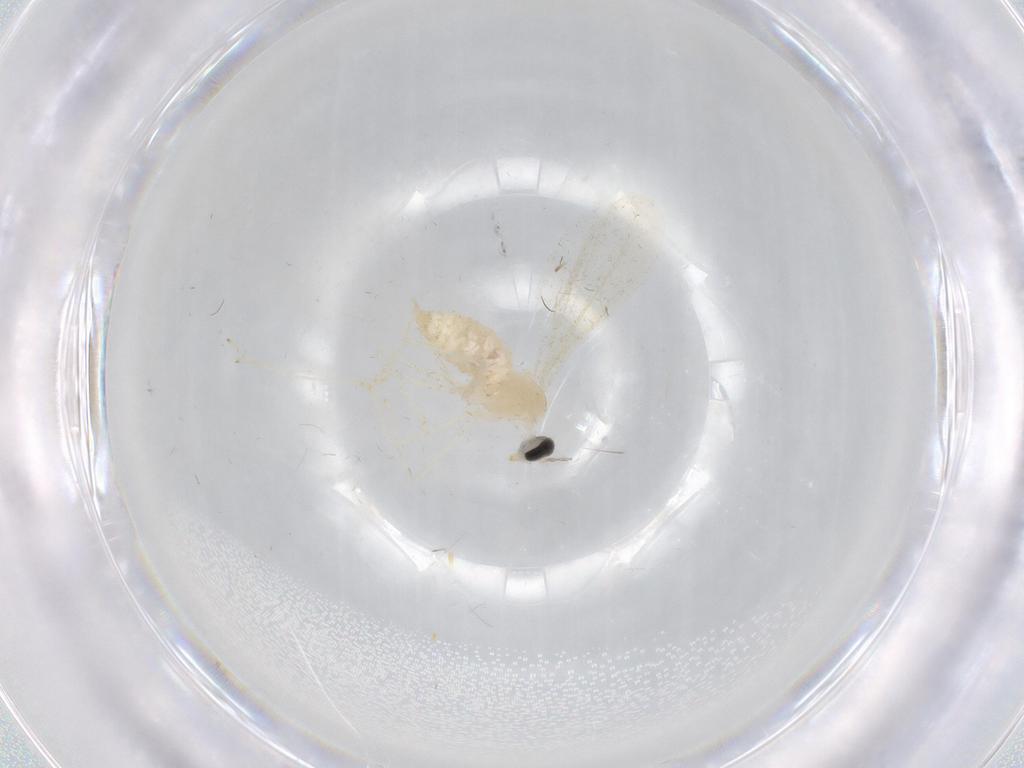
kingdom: Animalia
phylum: Arthropoda
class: Insecta
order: Diptera
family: Cecidomyiidae
